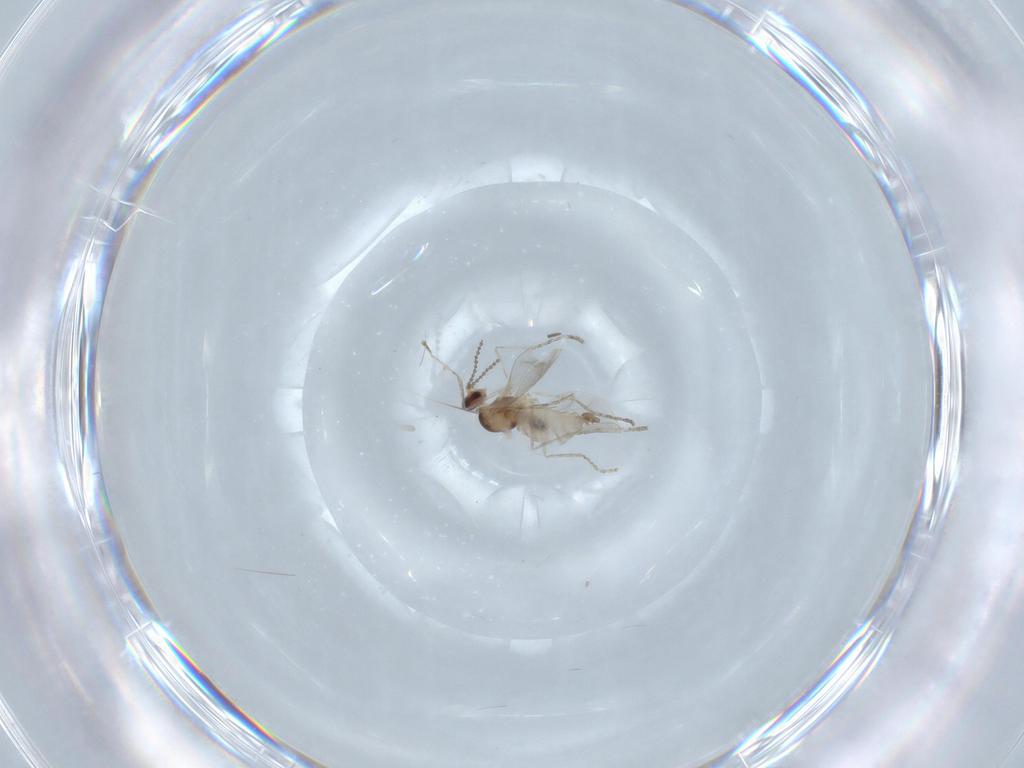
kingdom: Animalia
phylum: Arthropoda
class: Insecta
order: Diptera
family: Sciaridae
